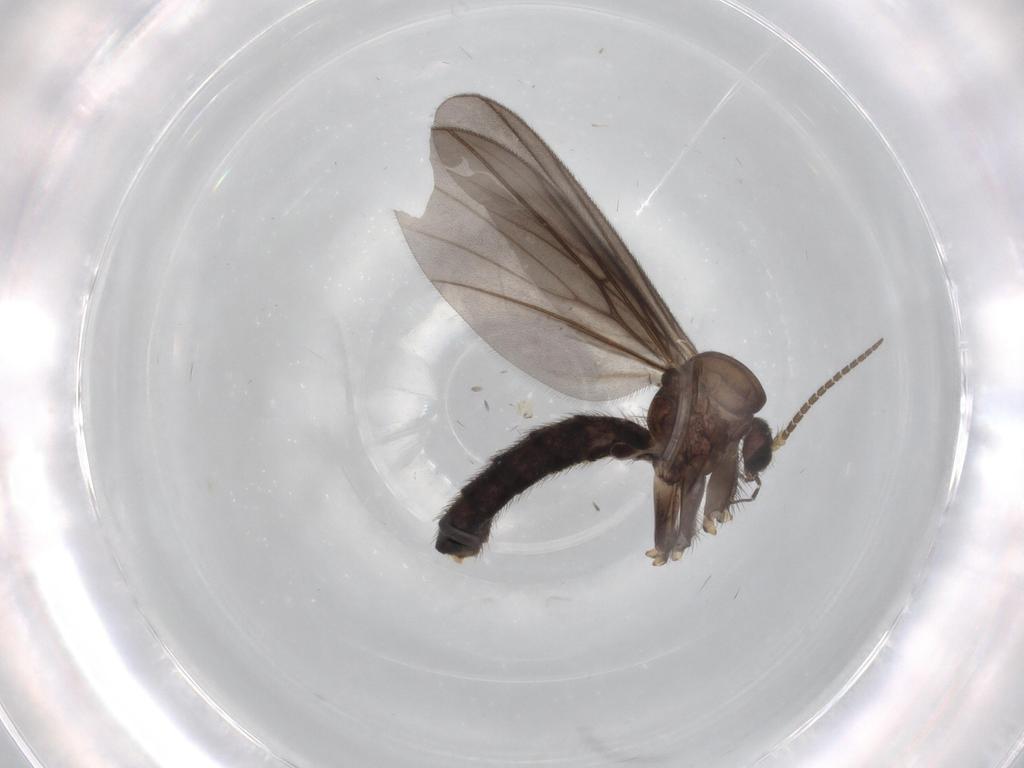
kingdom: Animalia
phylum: Arthropoda
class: Insecta
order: Diptera
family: Mycetophilidae
